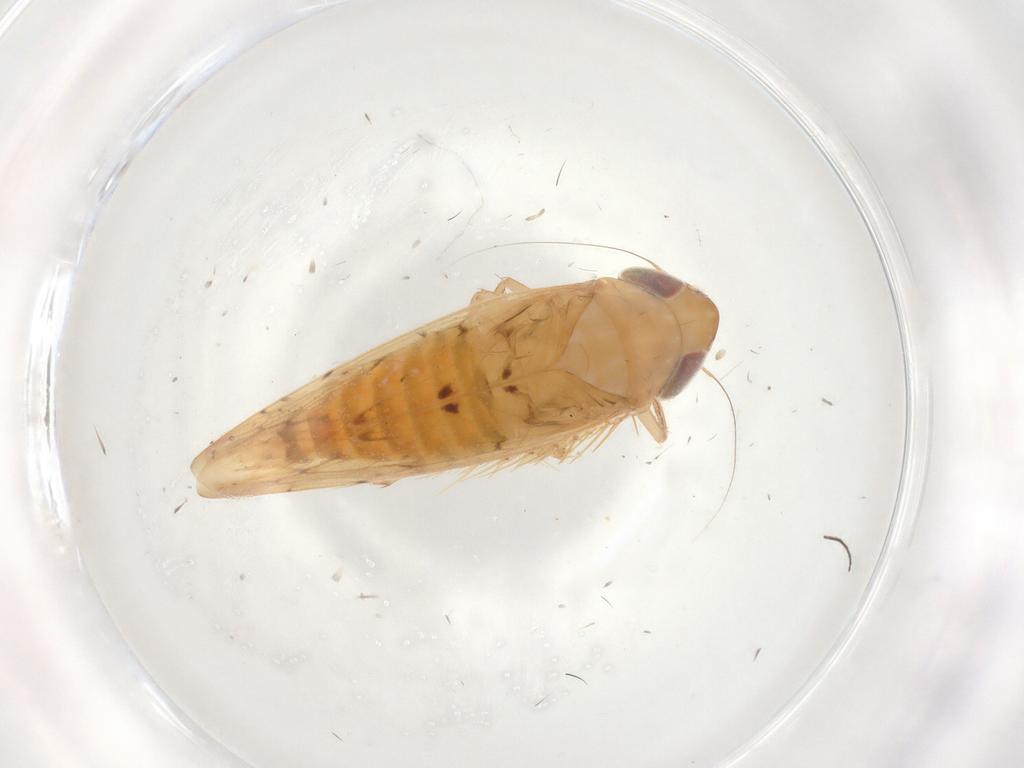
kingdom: Animalia
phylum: Arthropoda
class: Insecta
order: Hemiptera
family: Cicadellidae
